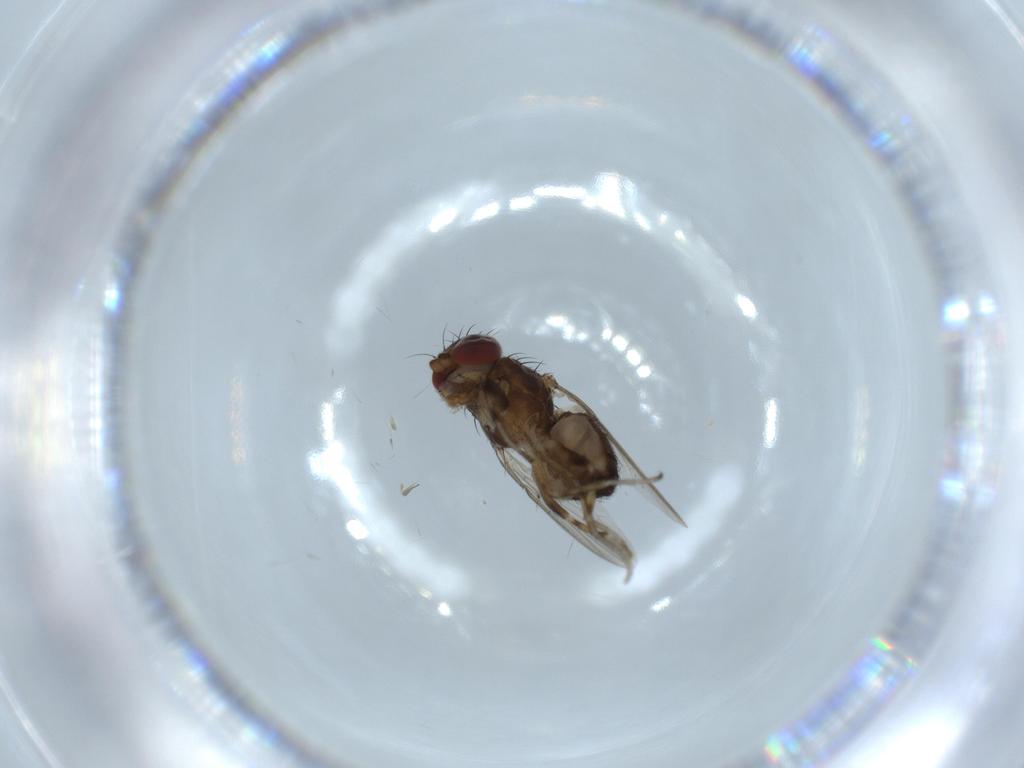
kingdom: Animalia
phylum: Arthropoda
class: Insecta
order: Diptera
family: Heleomyzidae
